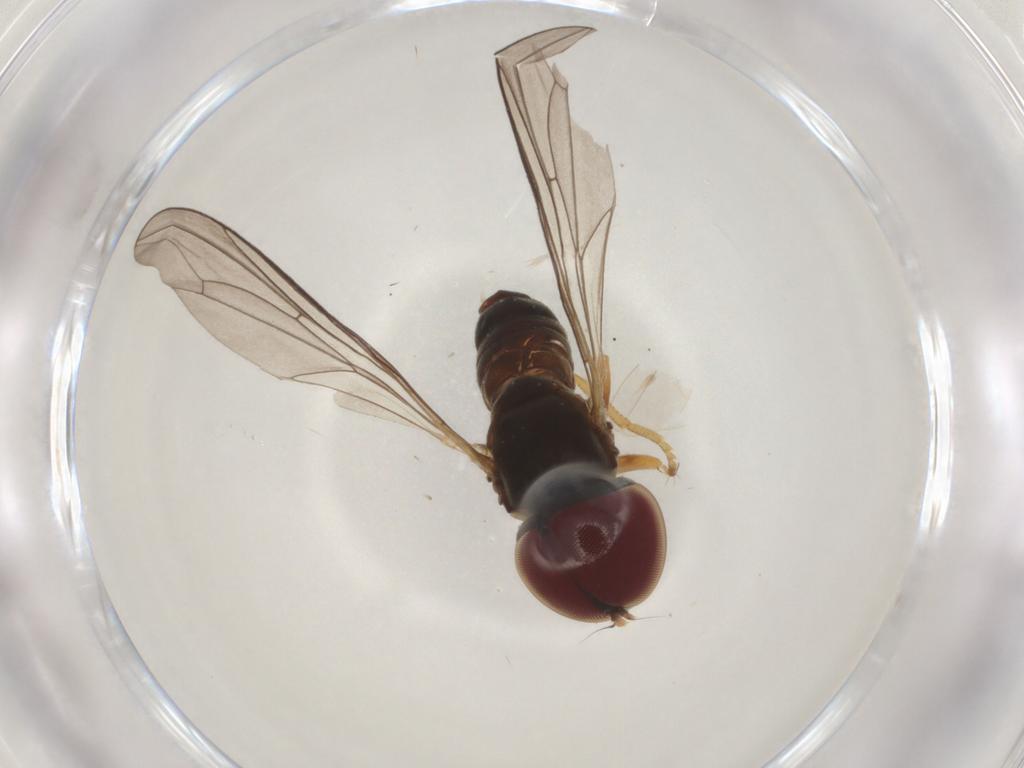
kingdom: Animalia
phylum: Arthropoda
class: Insecta
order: Diptera
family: Pipunculidae
